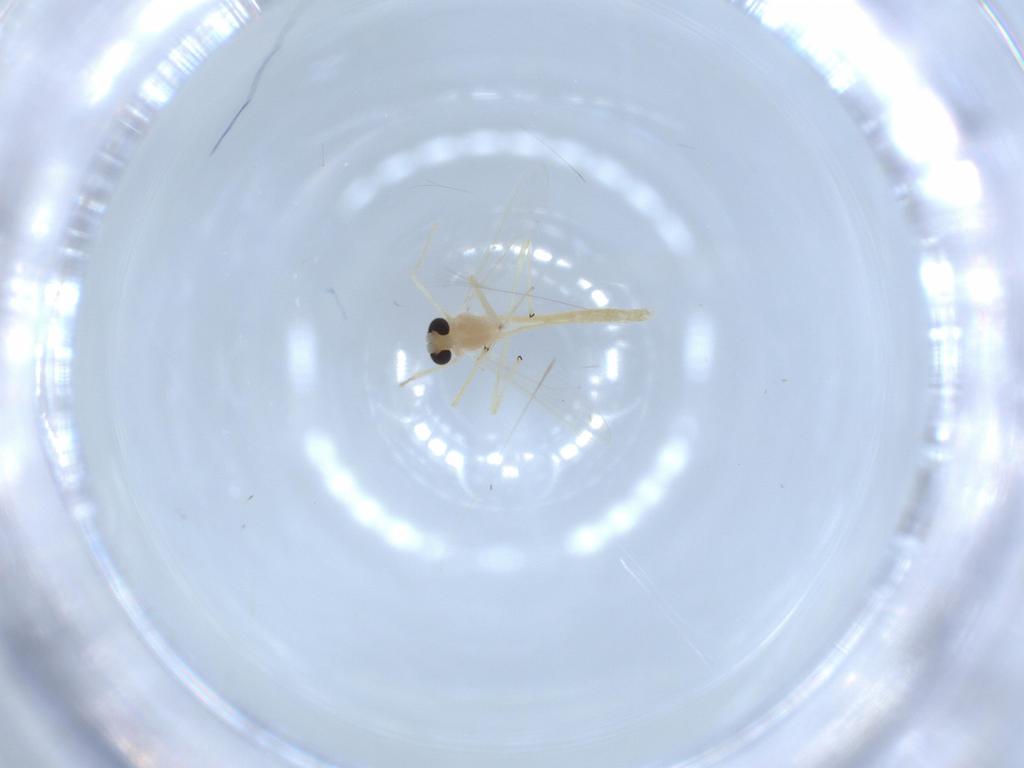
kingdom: Animalia
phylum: Arthropoda
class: Insecta
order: Diptera
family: Chironomidae
